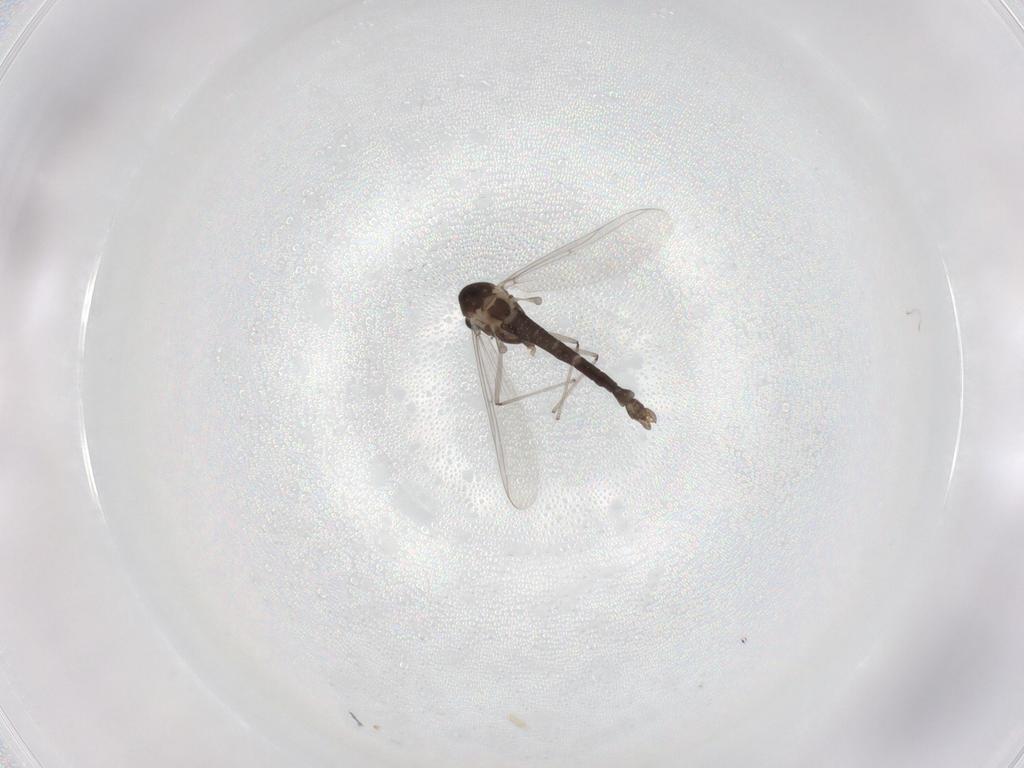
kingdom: Animalia
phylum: Arthropoda
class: Insecta
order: Diptera
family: Chironomidae
